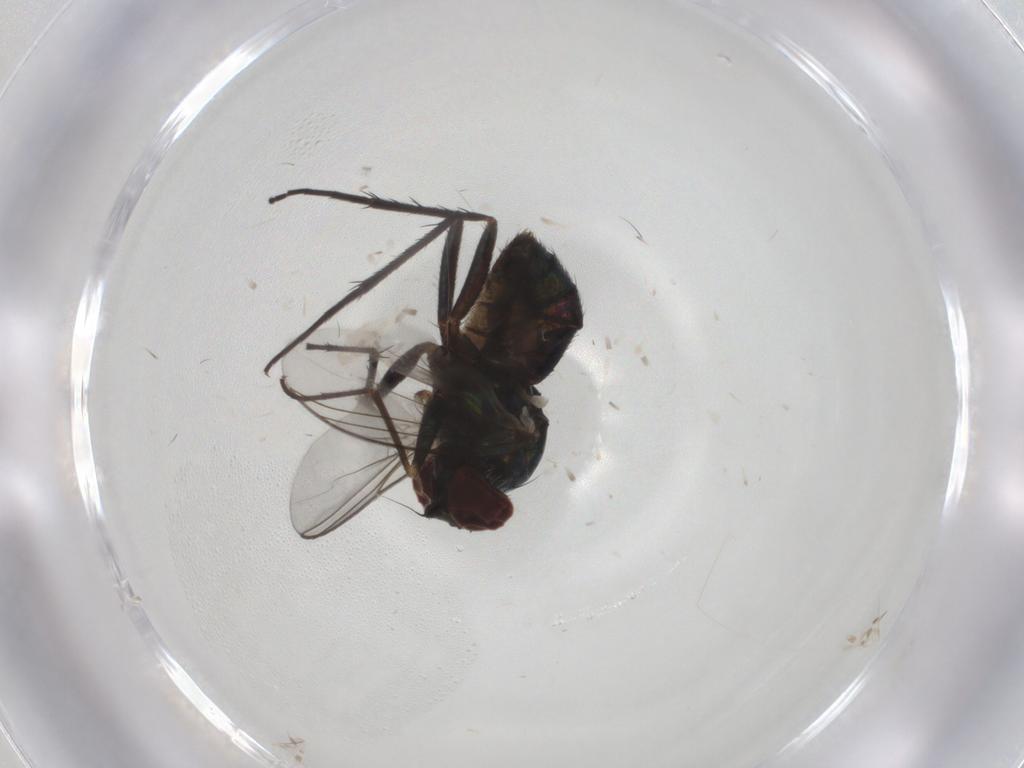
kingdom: Animalia
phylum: Arthropoda
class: Insecta
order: Diptera
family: Dolichopodidae
